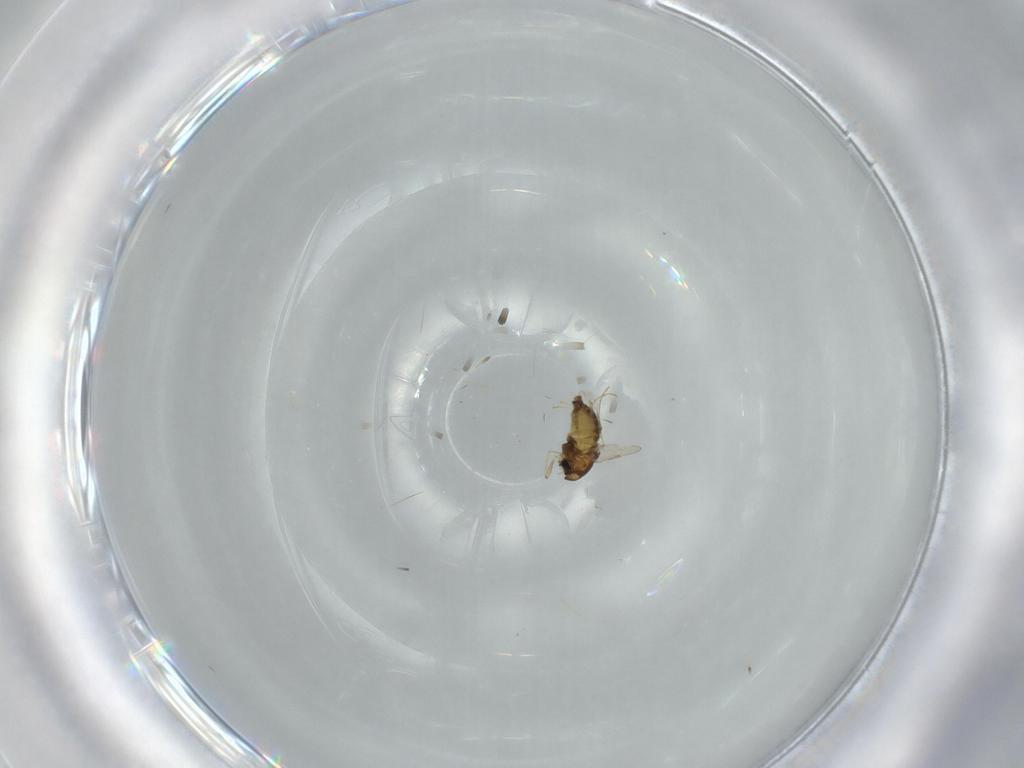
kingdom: Animalia
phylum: Arthropoda
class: Insecta
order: Diptera
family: Chironomidae
